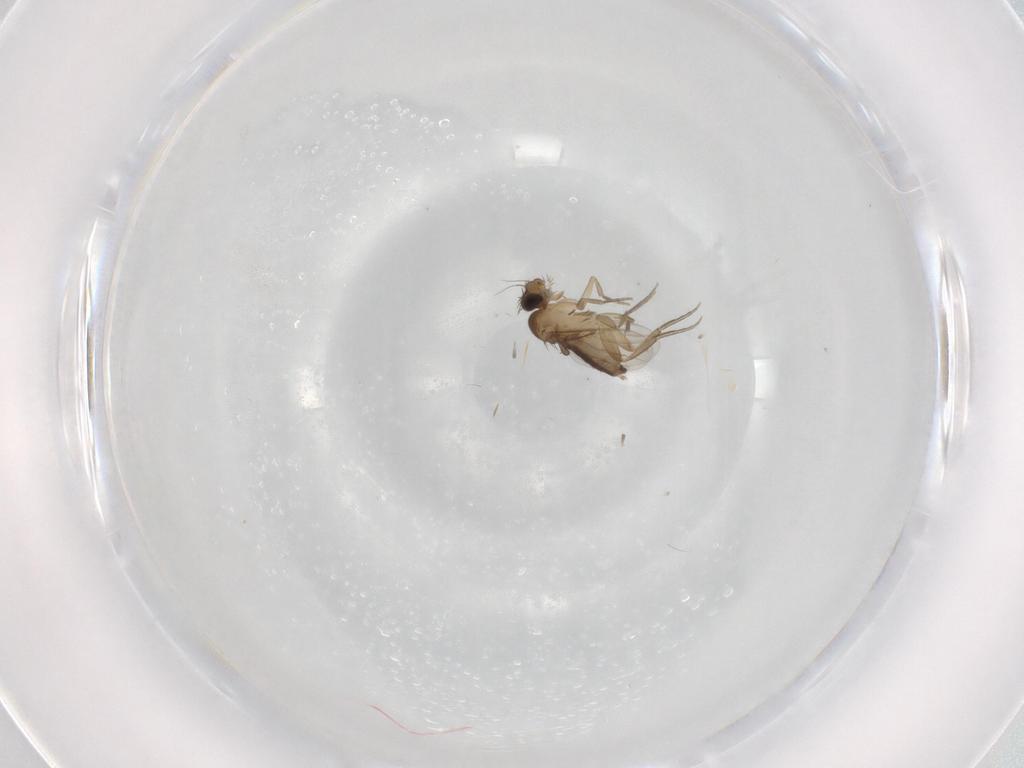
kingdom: Animalia
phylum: Arthropoda
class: Insecta
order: Diptera
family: Phoridae
